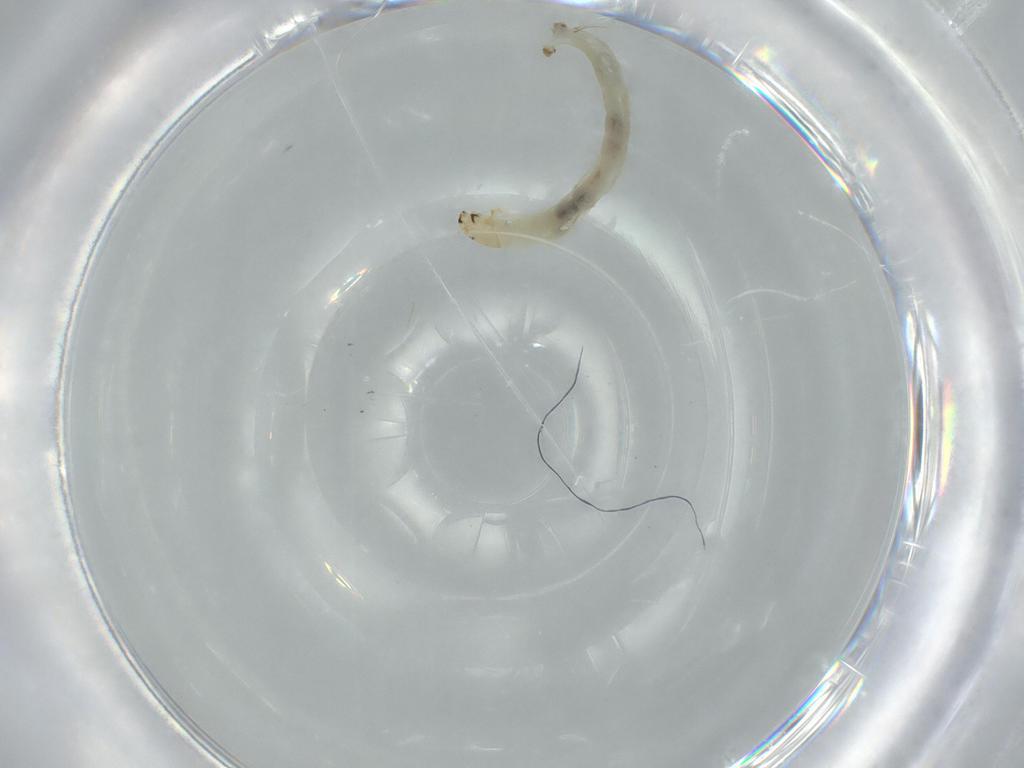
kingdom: Animalia
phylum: Arthropoda
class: Insecta
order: Diptera
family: Chironomidae
